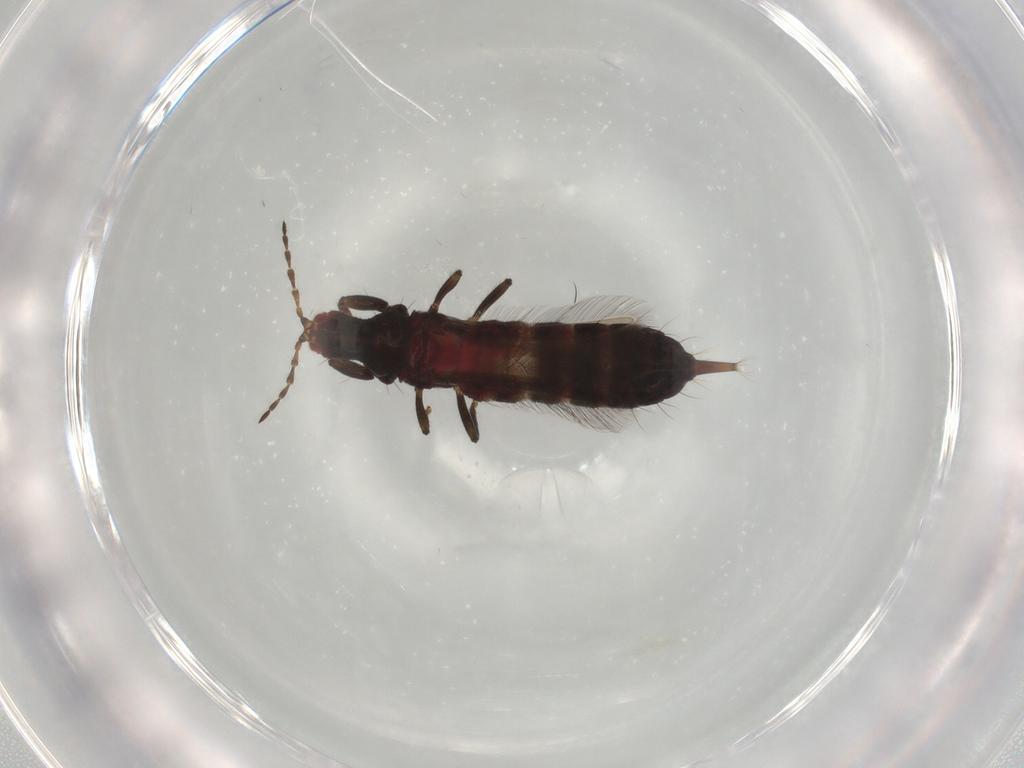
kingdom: Animalia
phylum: Arthropoda
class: Insecta
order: Thysanoptera
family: Phlaeothripidae
